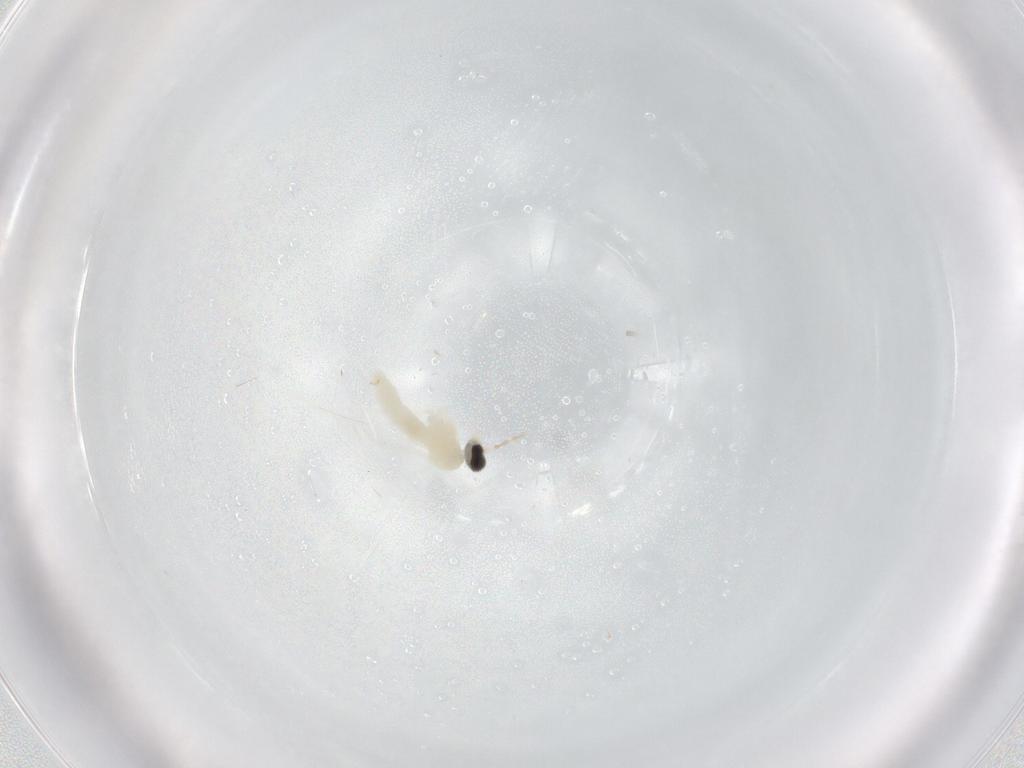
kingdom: Animalia
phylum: Arthropoda
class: Insecta
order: Diptera
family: Cecidomyiidae
